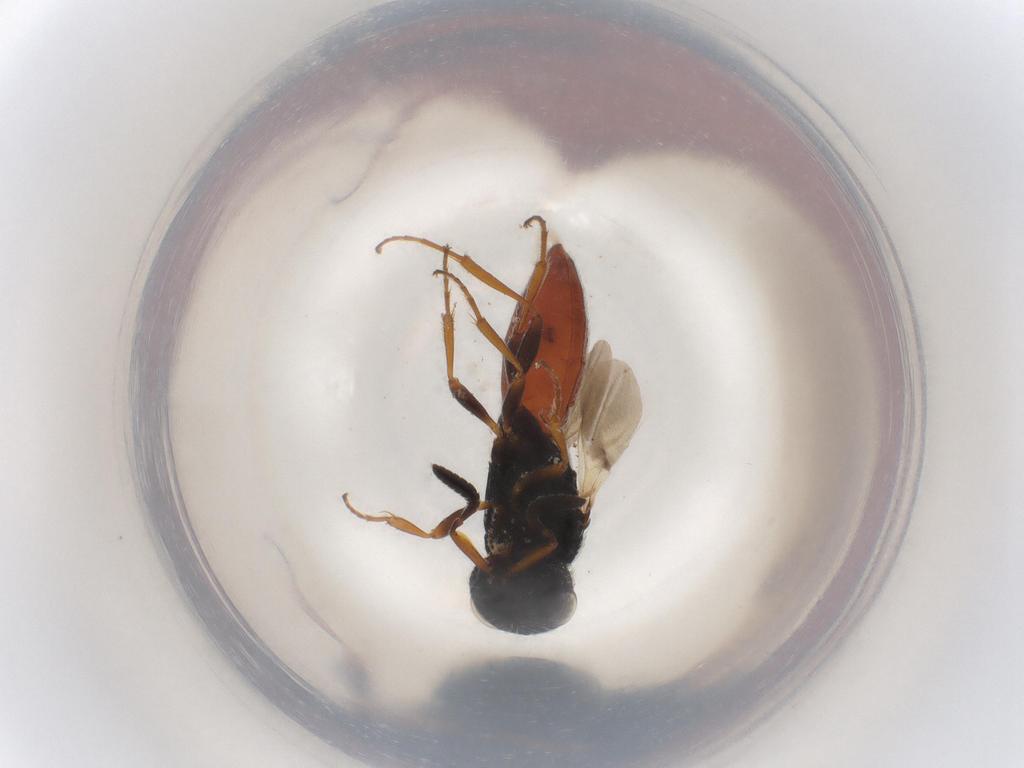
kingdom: Animalia
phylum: Arthropoda
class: Insecta
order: Hymenoptera
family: Scelionidae
